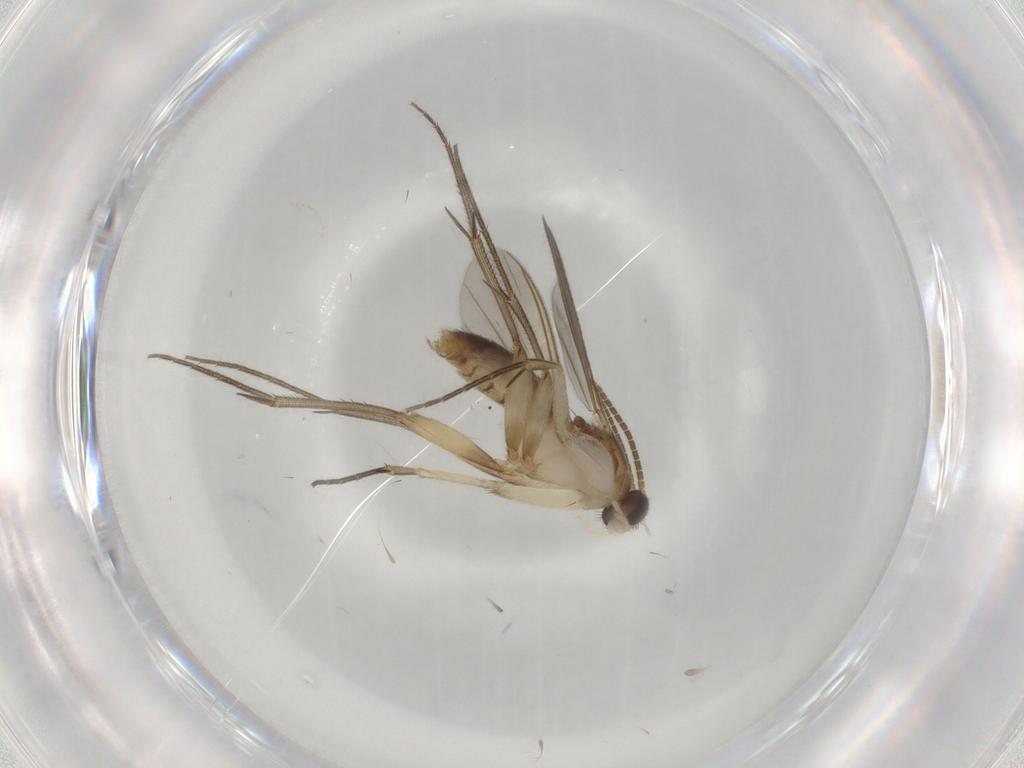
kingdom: Animalia
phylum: Arthropoda
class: Insecta
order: Diptera
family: Mycetophilidae
